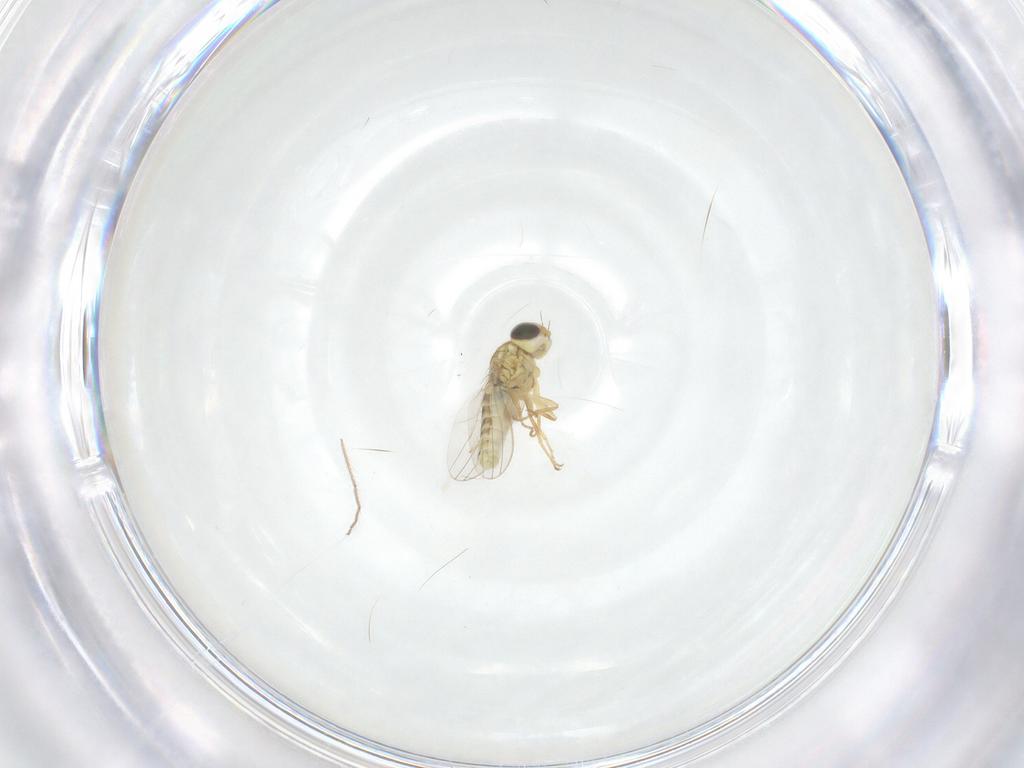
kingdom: Animalia
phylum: Arthropoda
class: Insecta
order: Diptera
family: Chyromyidae
